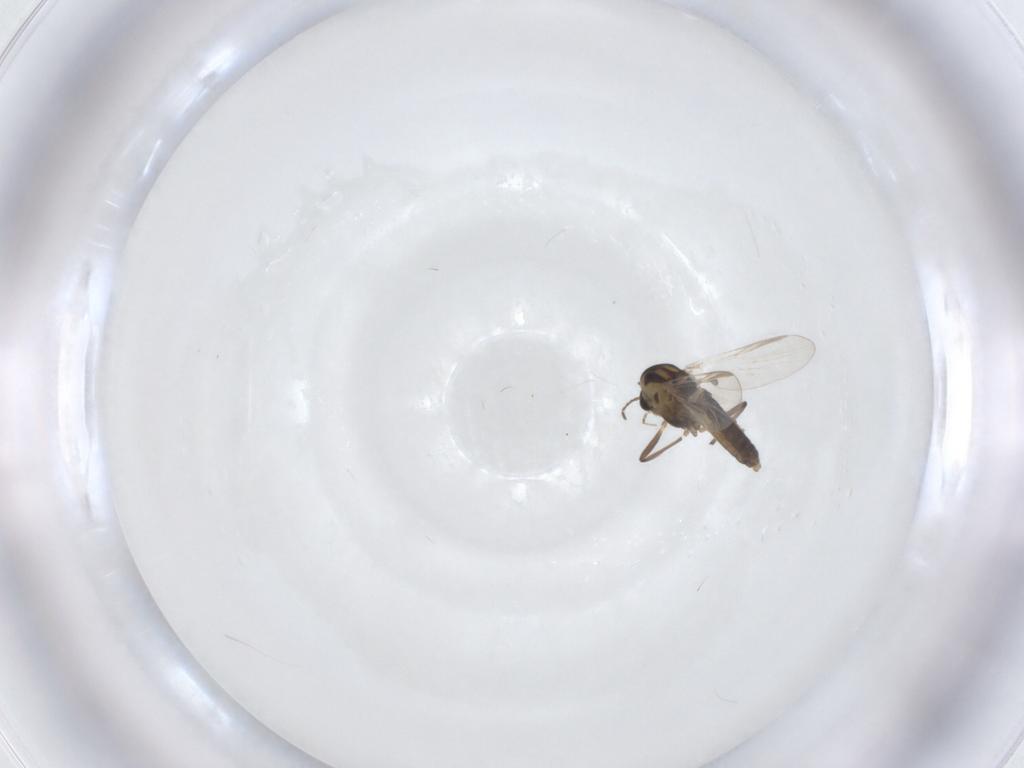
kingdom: Animalia
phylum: Arthropoda
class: Insecta
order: Diptera
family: Chironomidae
